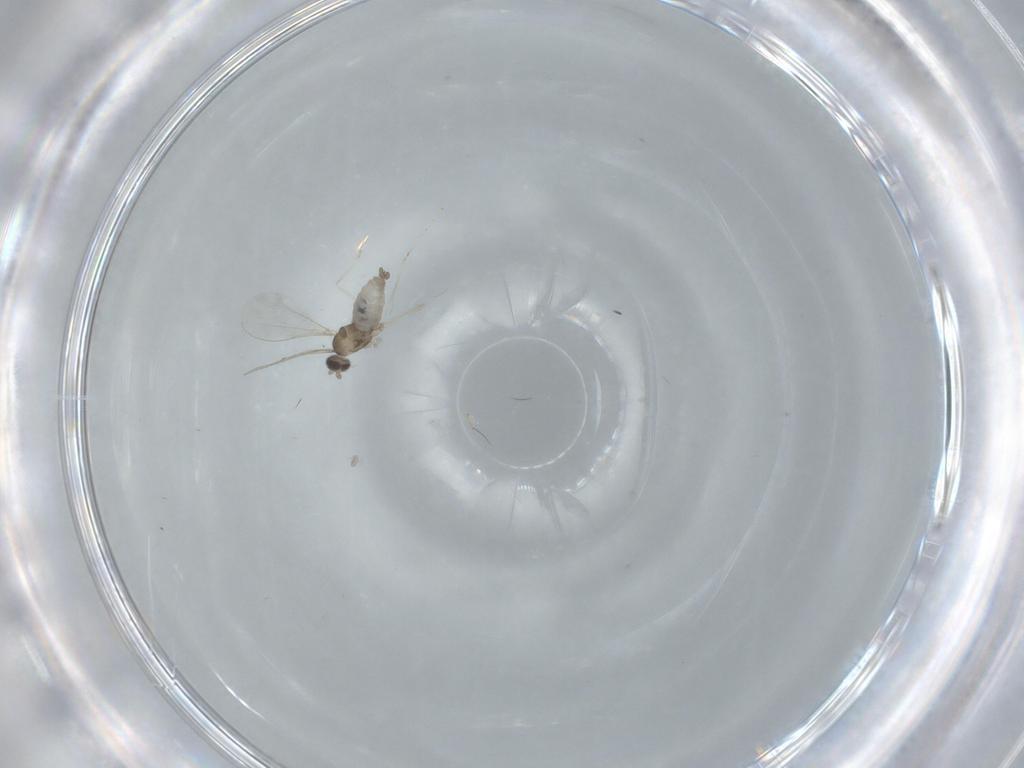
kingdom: Animalia
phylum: Arthropoda
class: Insecta
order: Diptera
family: Cecidomyiidae
